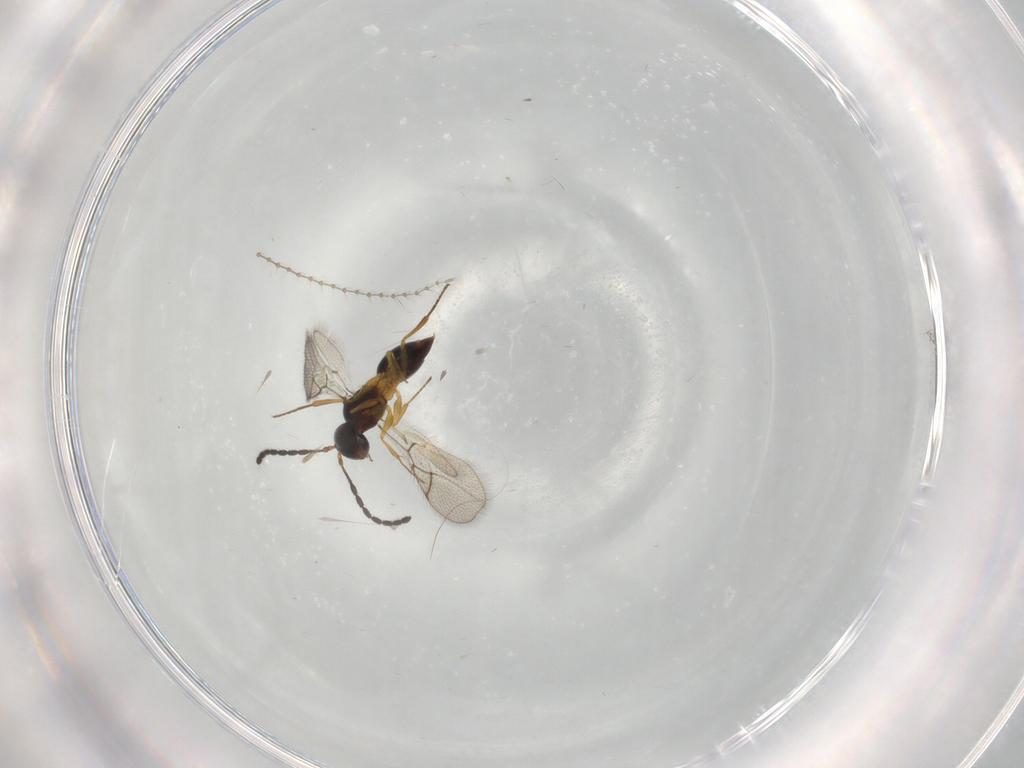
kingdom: Animalia
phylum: Arthropoda
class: Insecta
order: Hymenoptera
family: Figitidae
